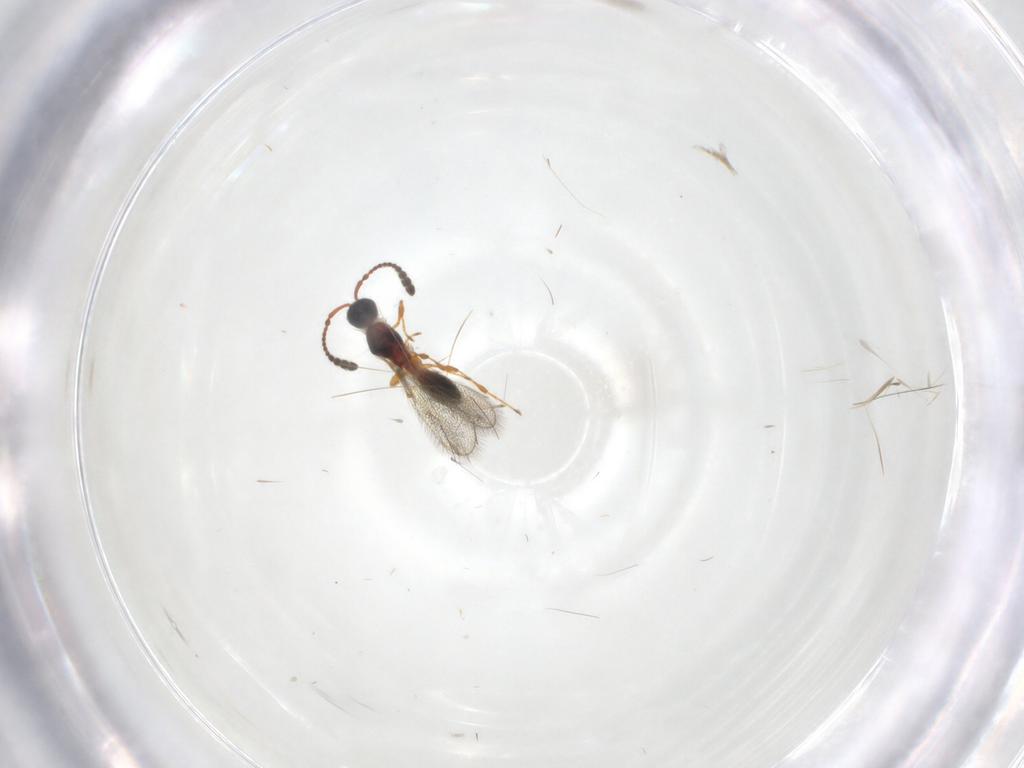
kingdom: Animalia
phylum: Arthropoda
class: Insecta
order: Hymenoptera
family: Diapriidae
